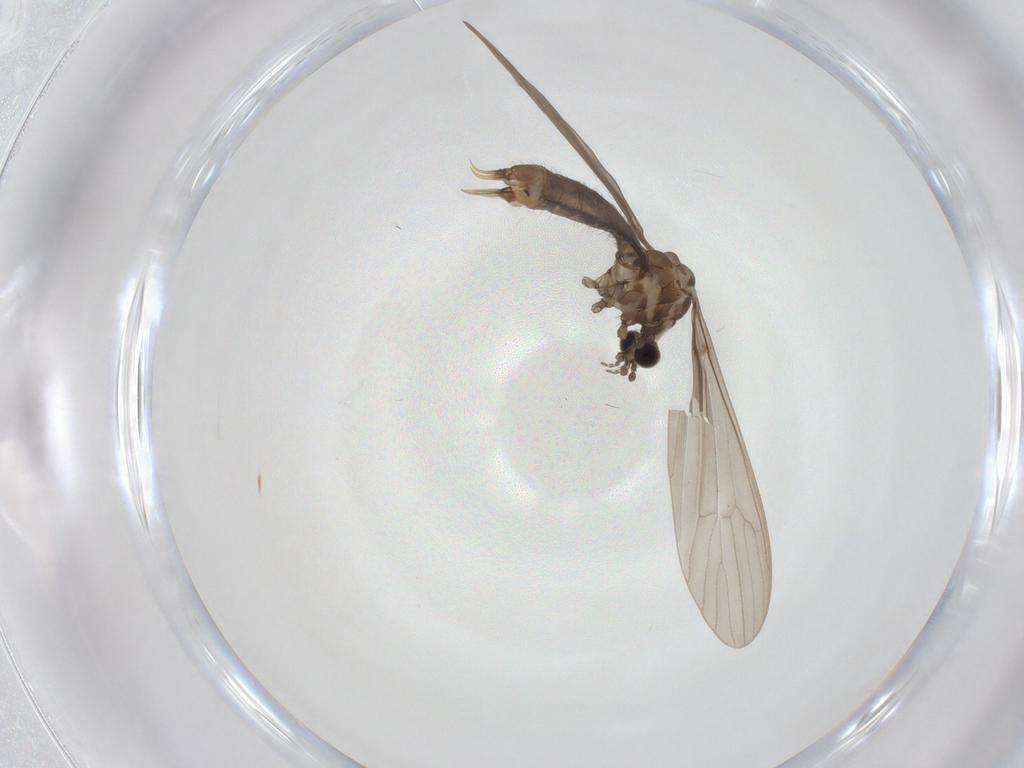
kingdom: Animalia
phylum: Arthropoda
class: Insecta
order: Diptera
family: Limoniidae
